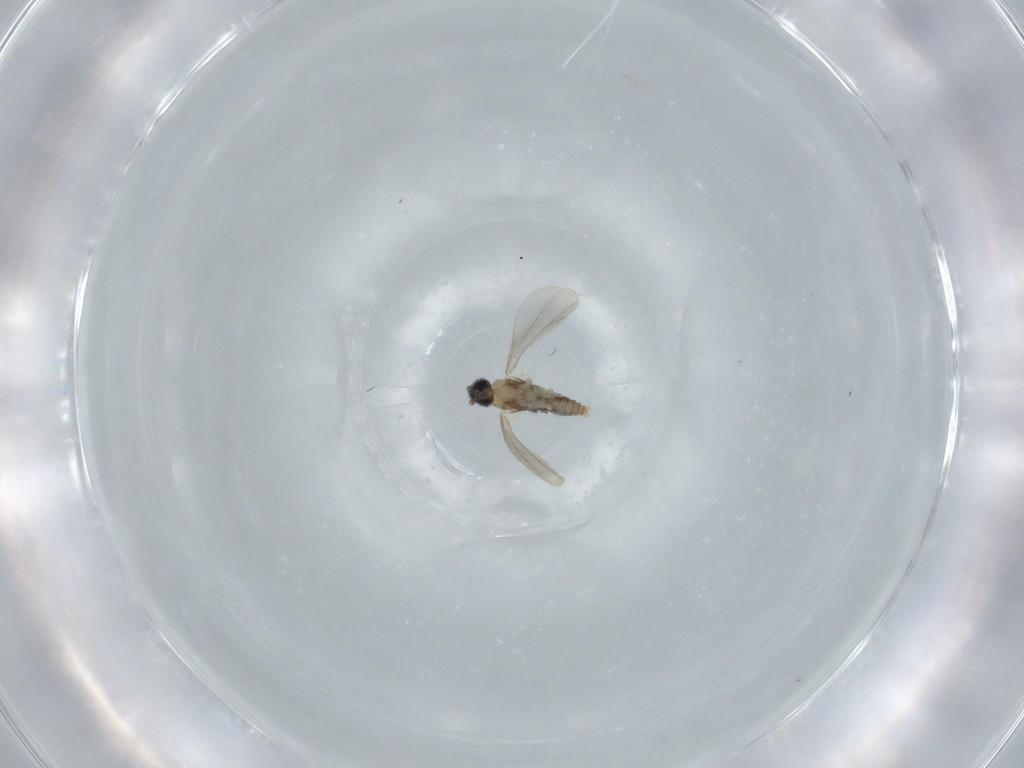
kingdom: Animalia
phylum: Arthropoda
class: Insecta
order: Diptera
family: Cecidomyiidae
